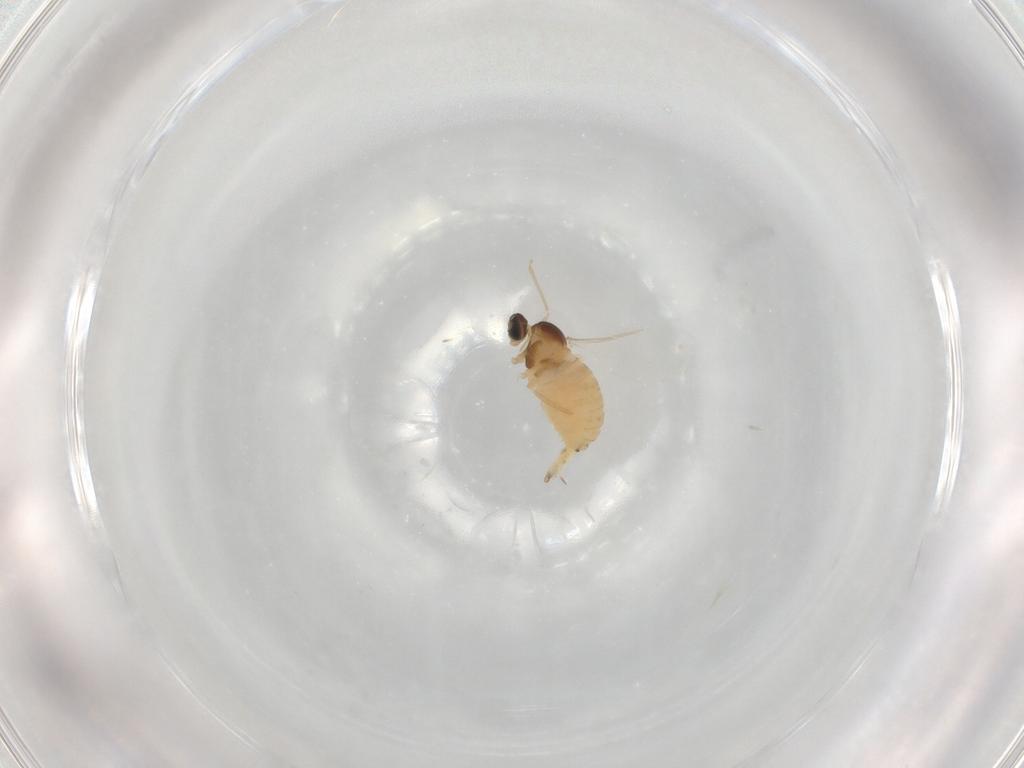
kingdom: Animalia
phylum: Arthropoda
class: Insecta
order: Diptera
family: Cecidomyiidae
